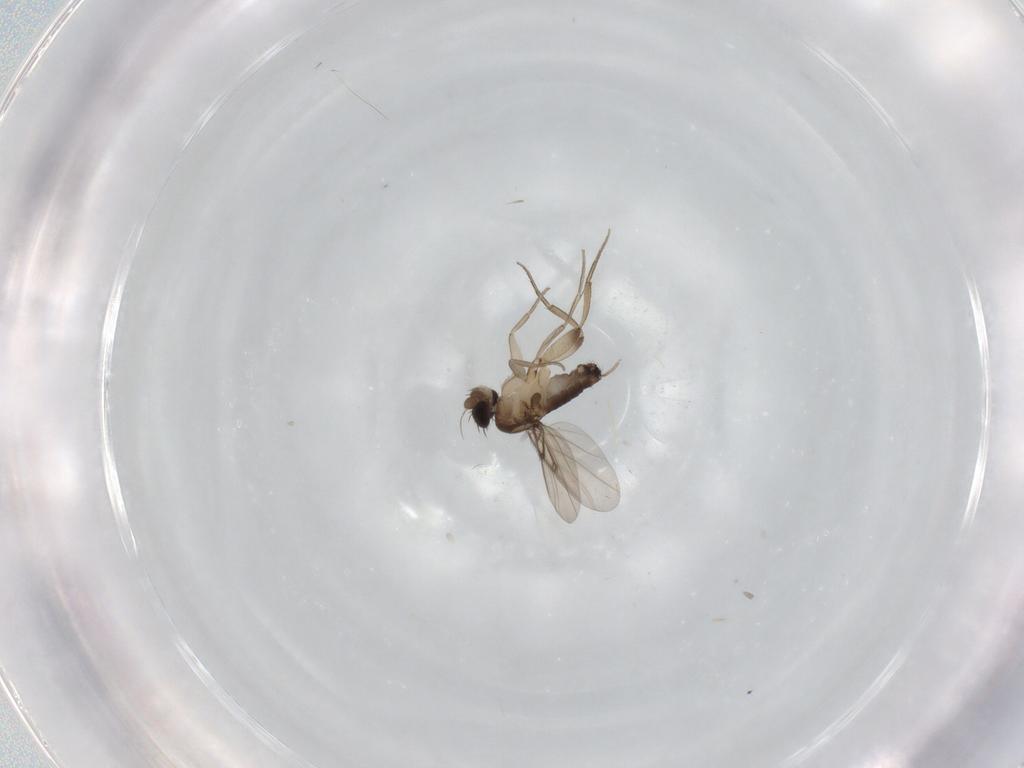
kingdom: Animalia
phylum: Arthropoda
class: Insecta
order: Diptera
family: Phoridae
